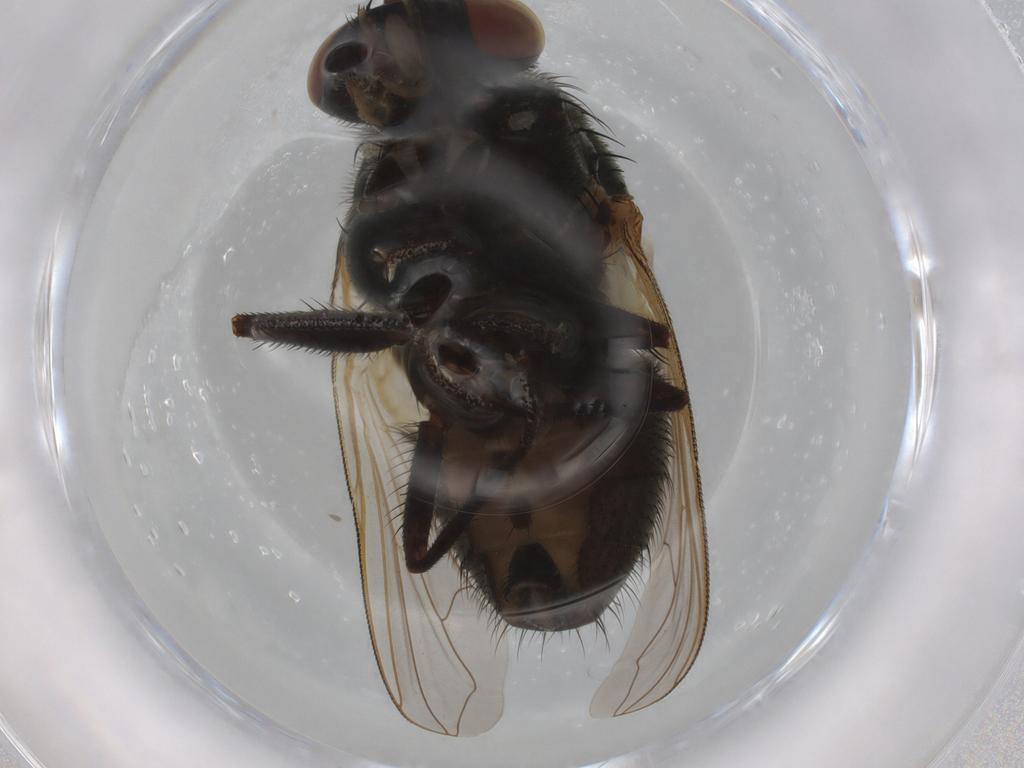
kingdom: Animalia
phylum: Arthropoda
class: Insecta
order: Diptera
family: Muscidae
